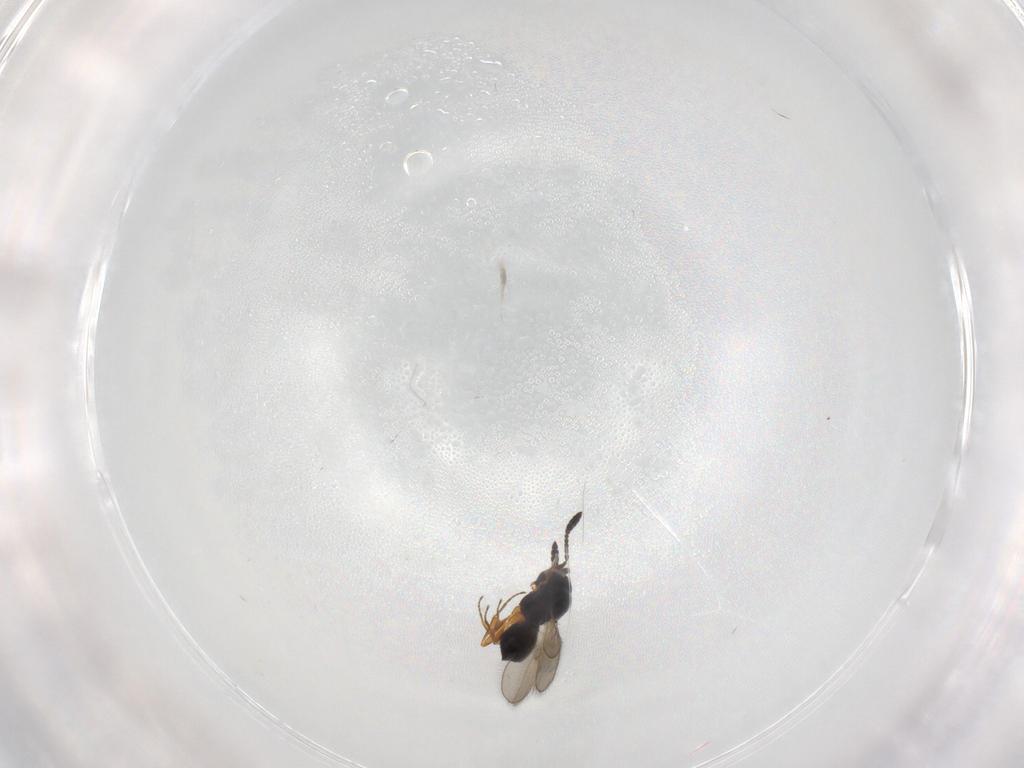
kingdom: Animalia
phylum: Arthropoda
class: Insecta
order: Hymenoptera
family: Scelionidae
